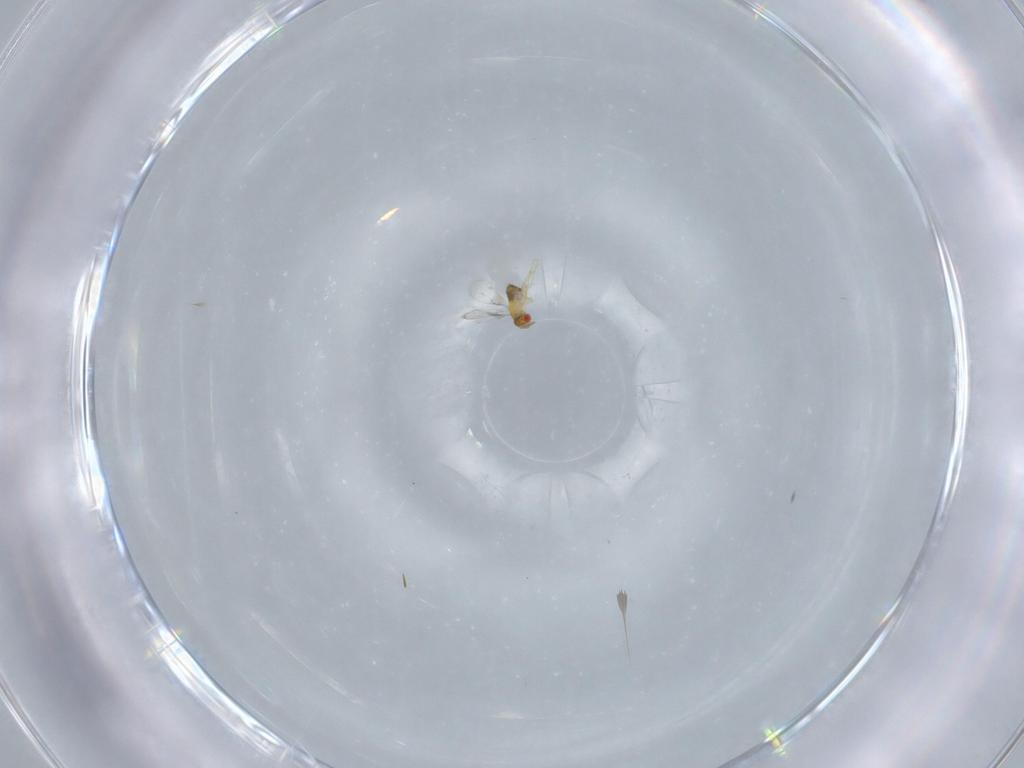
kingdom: Animalia
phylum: Arthropoda
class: Insecta
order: Hymenoptera
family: Trichogrammatidae
